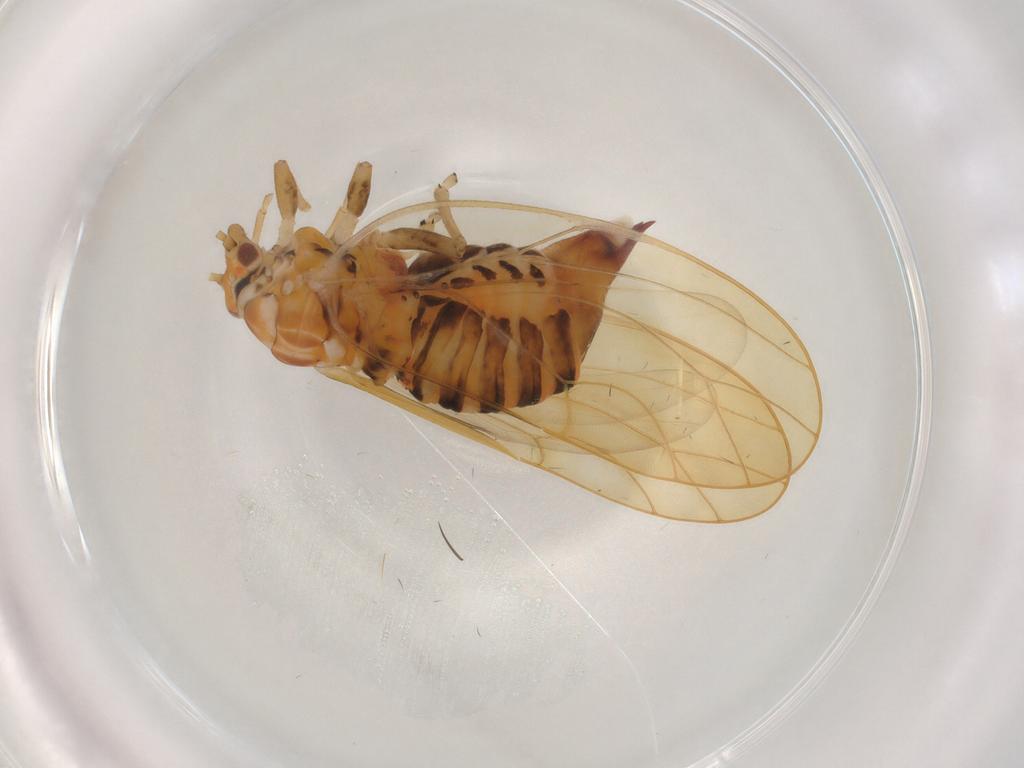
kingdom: Animalia
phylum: Arthropoda
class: Insecta
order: Hemiptera
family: Psyllidae
